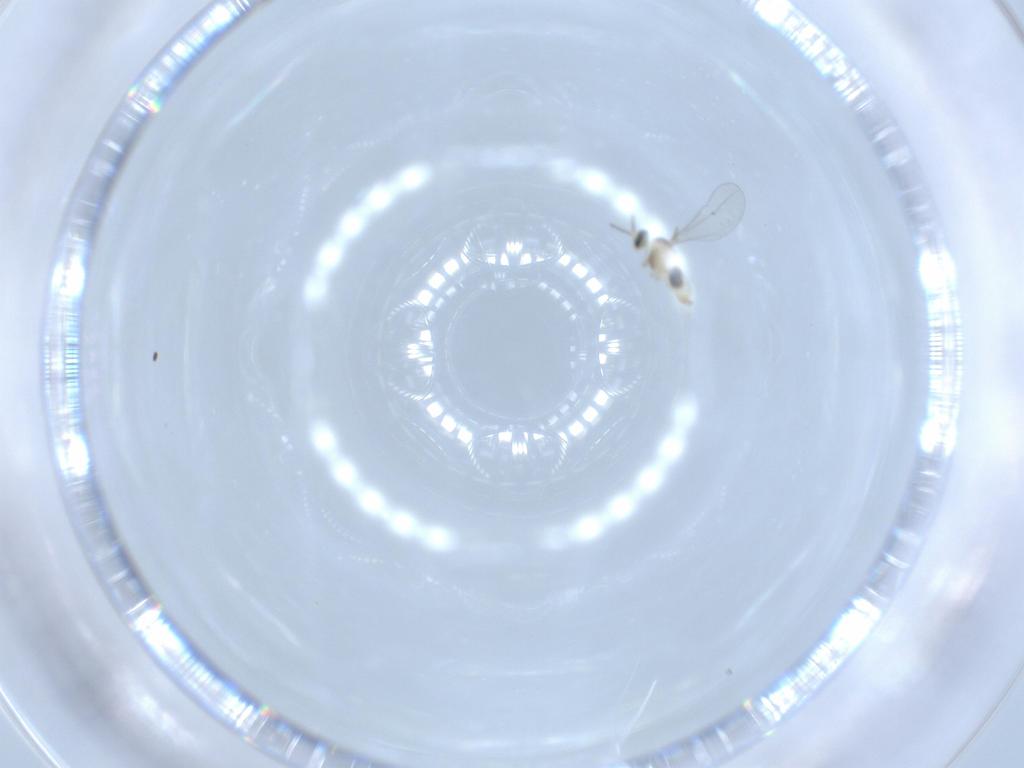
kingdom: Animalia
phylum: Arthropoda
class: Insecta
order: Diptera
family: Cecidomyiidae
